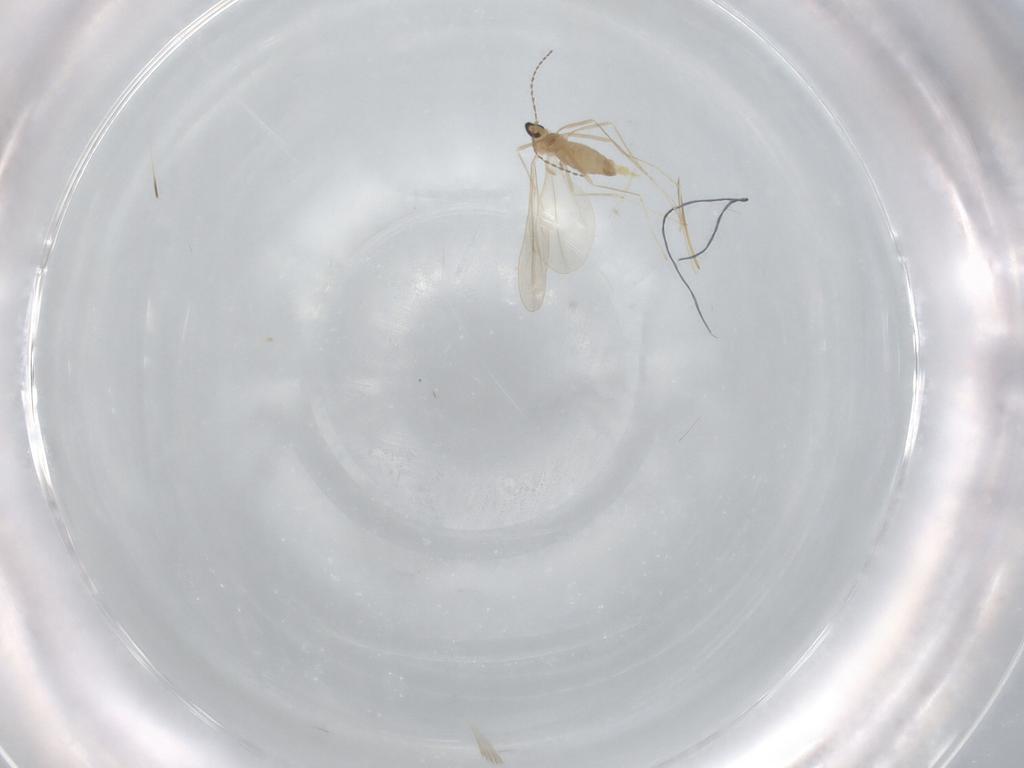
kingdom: Animalia
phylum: Arthropoda
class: Insecta
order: Diptera
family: Cecidomyiidae
